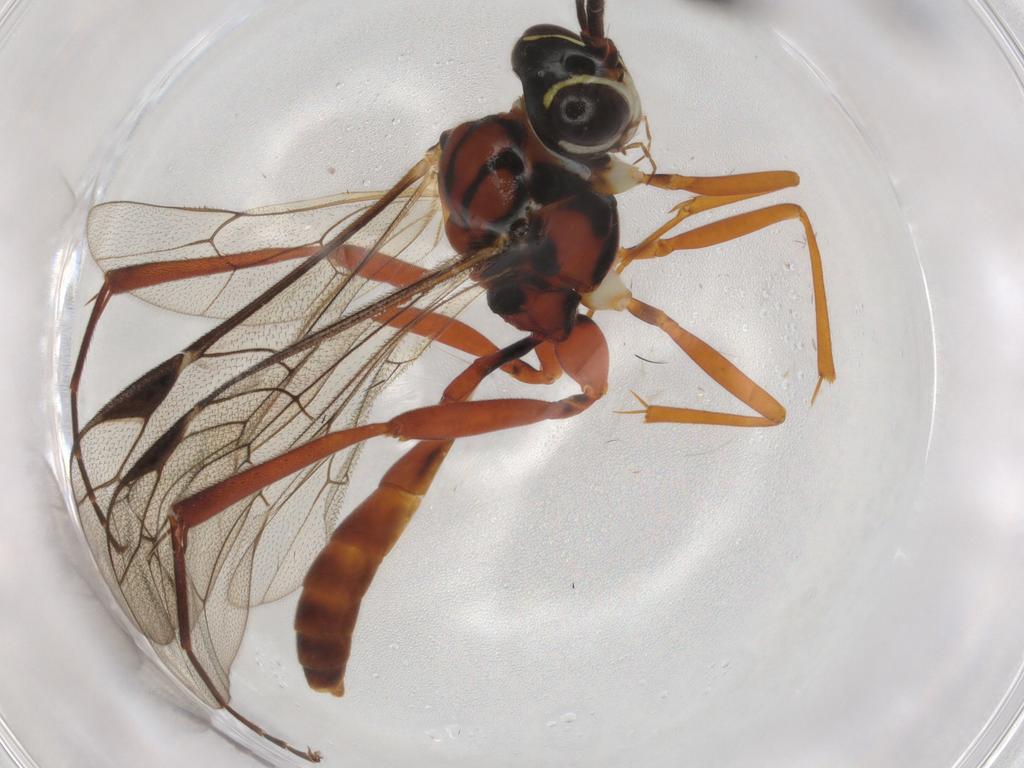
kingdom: Animalia
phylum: Arthropoda
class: Insecta
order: Hymenoptera
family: Ichneumonidae
